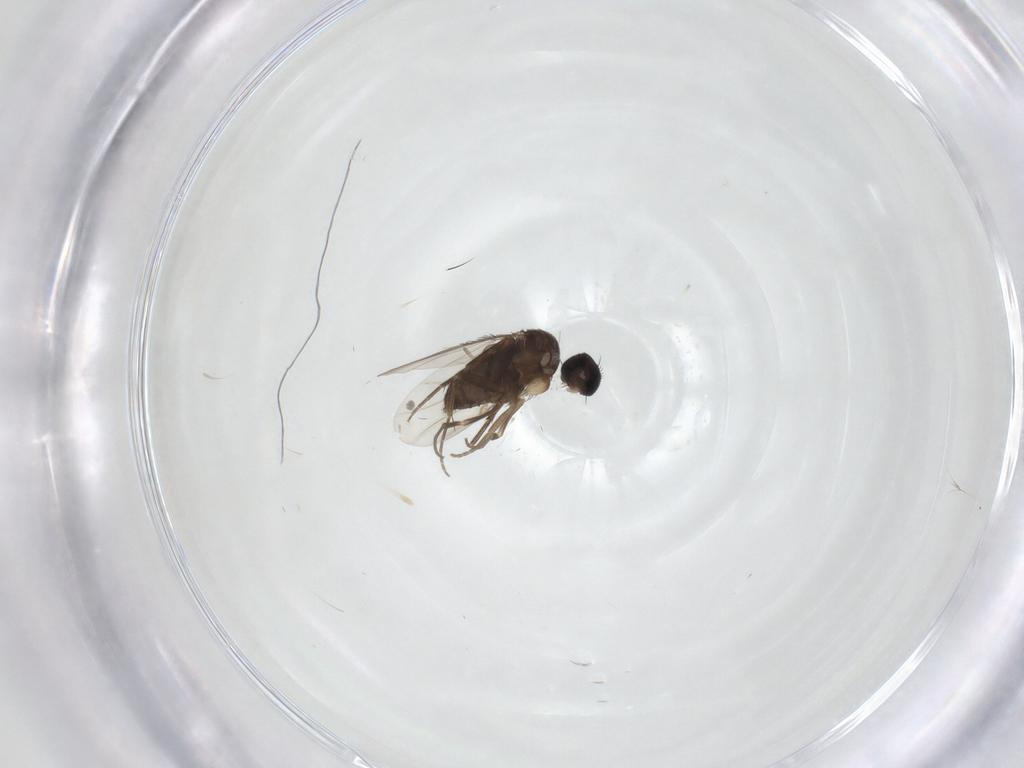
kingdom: Animalia
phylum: Arthropoda
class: Insecta
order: Diptera
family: Phoridae
